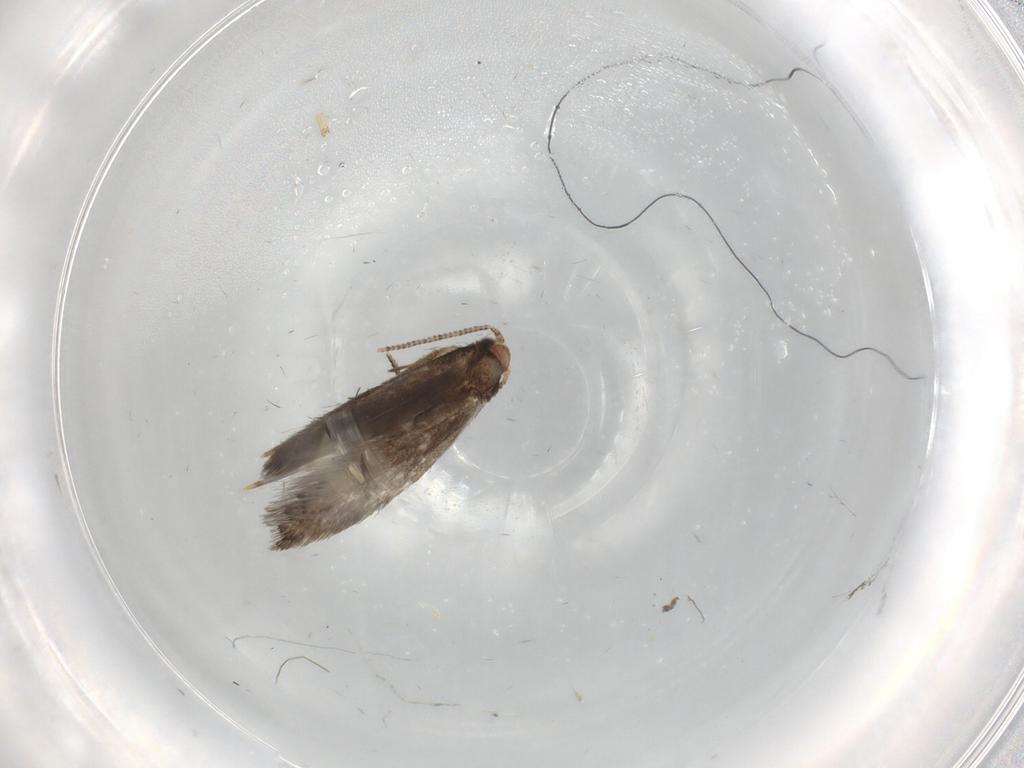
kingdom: Animalia
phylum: Arthropoda
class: Insecta
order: Lepidoptera
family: Meessiidae
